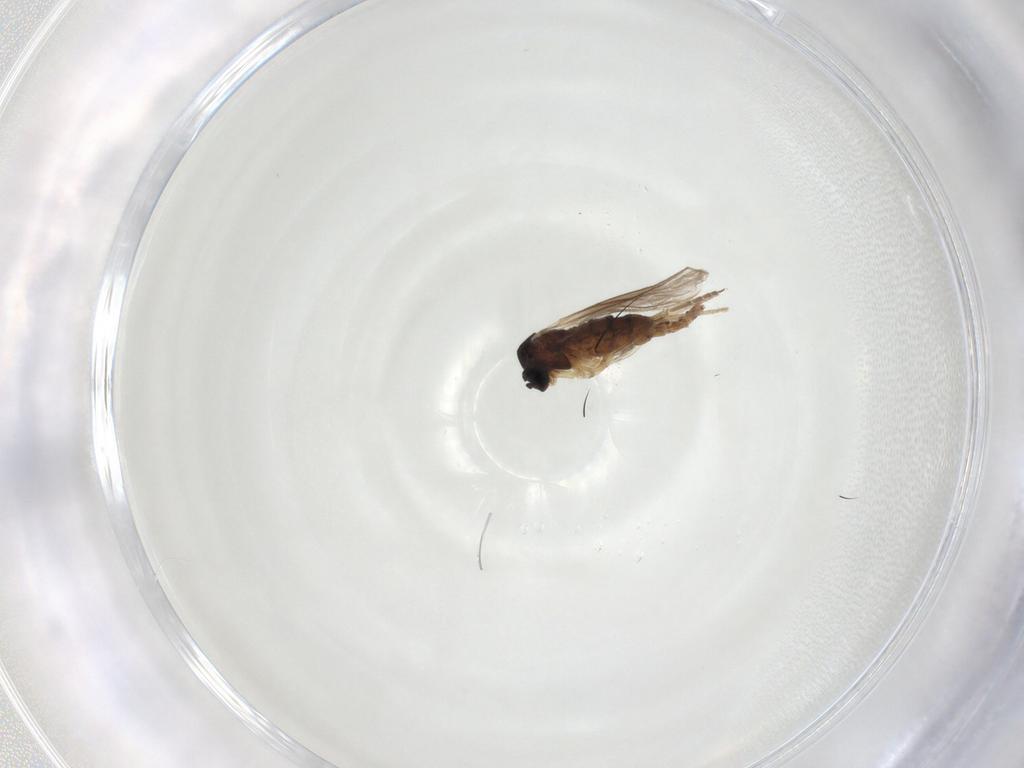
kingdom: Animalia
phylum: Arthropoda
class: Insecta
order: Diptera
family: Sciaridae
